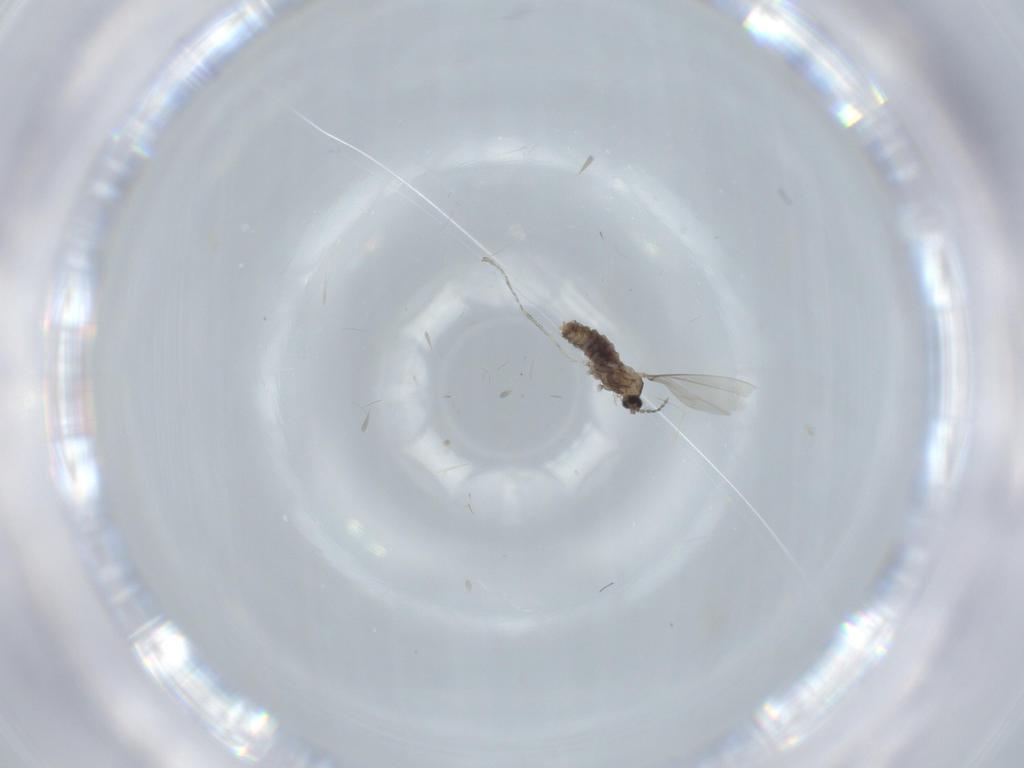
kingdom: Animalia
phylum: Arthropoda
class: Insecta
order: Diptera
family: Cecidomyiidae
